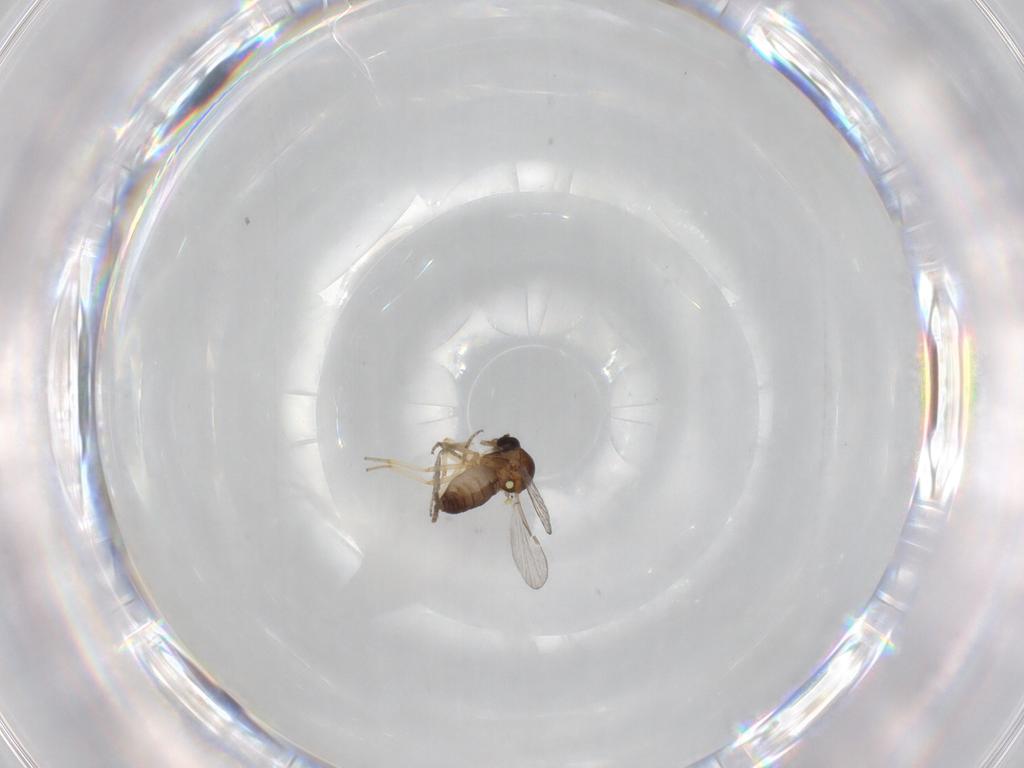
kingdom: Animalia
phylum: Arthropoda
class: Insecta
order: Diptera
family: Ceratopogonidae
